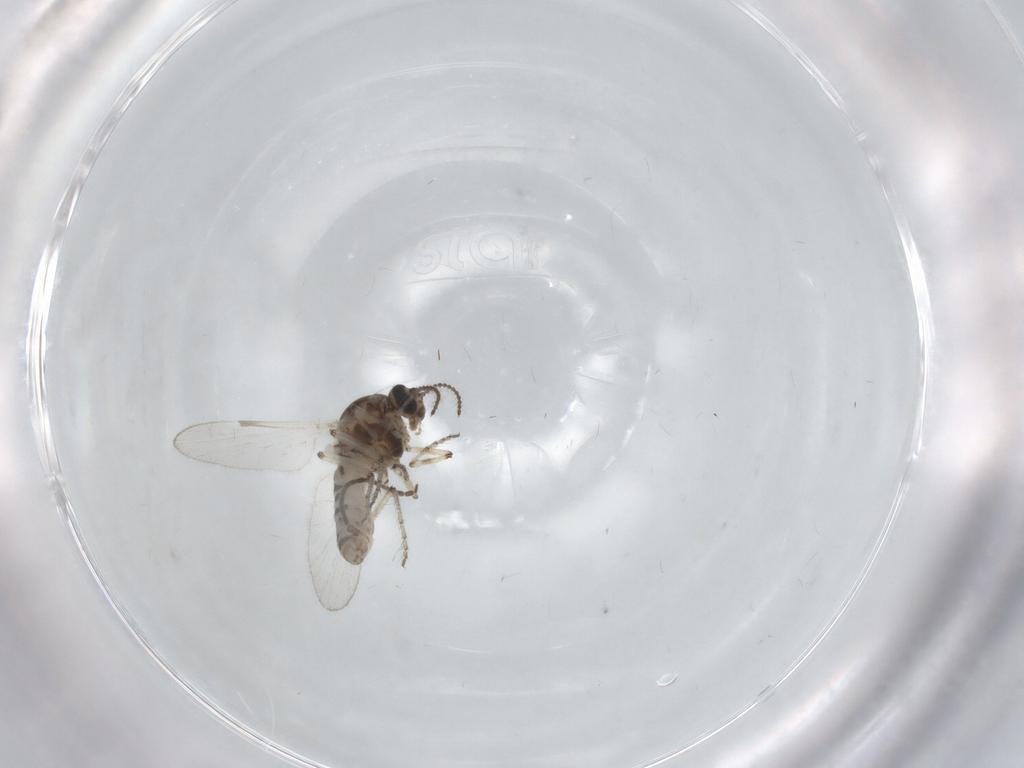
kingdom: Animalia
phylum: Arthropoda
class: Insecta
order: Diptera
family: Ceratopogonidae
